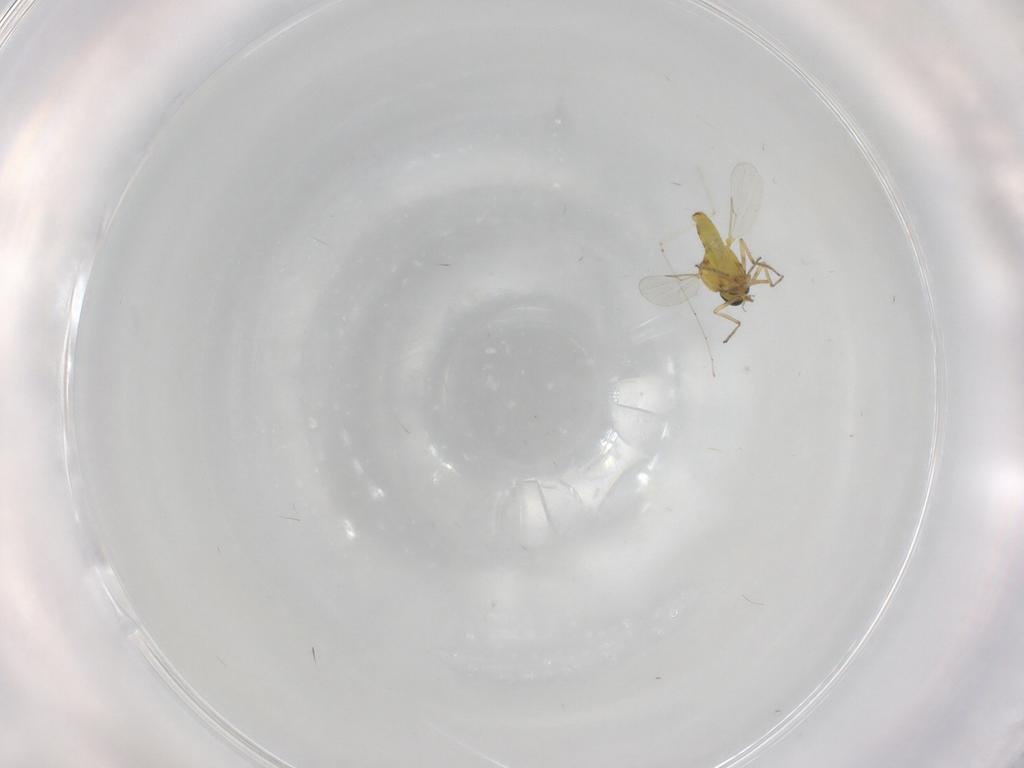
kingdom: Animalia
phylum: Arthropoda
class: Insecta
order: Diptera
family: Ceratopogonidae
